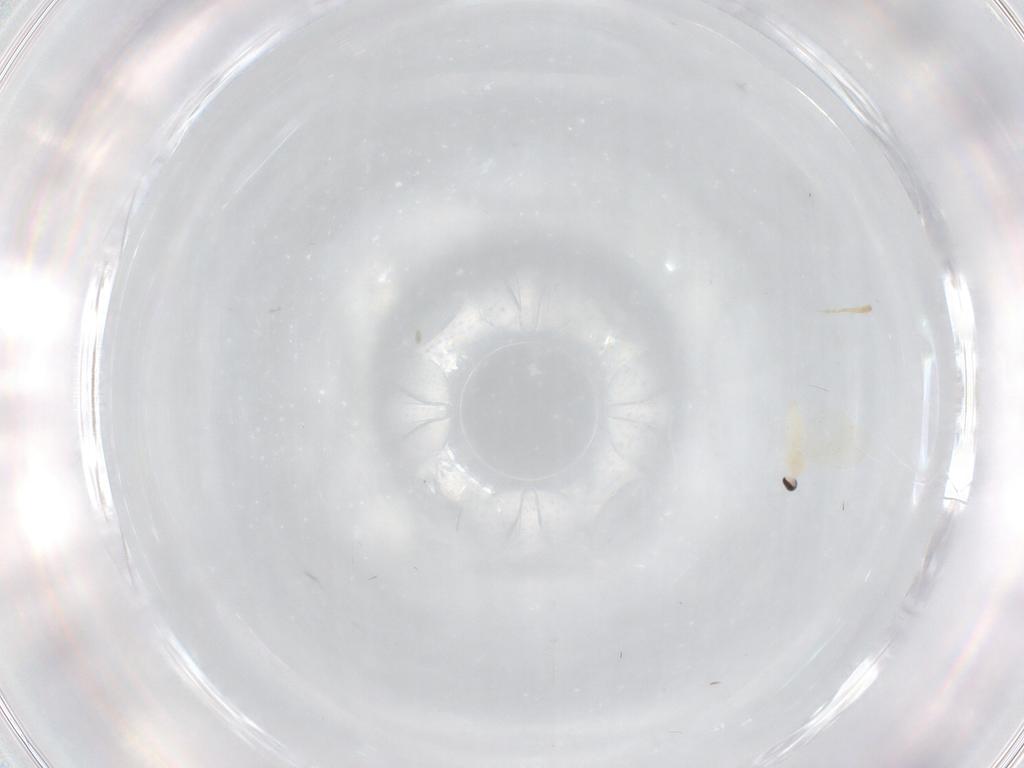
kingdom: Animalia
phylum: Arthropoda
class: Insecta
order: Diptera
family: Cecidomyiidae
